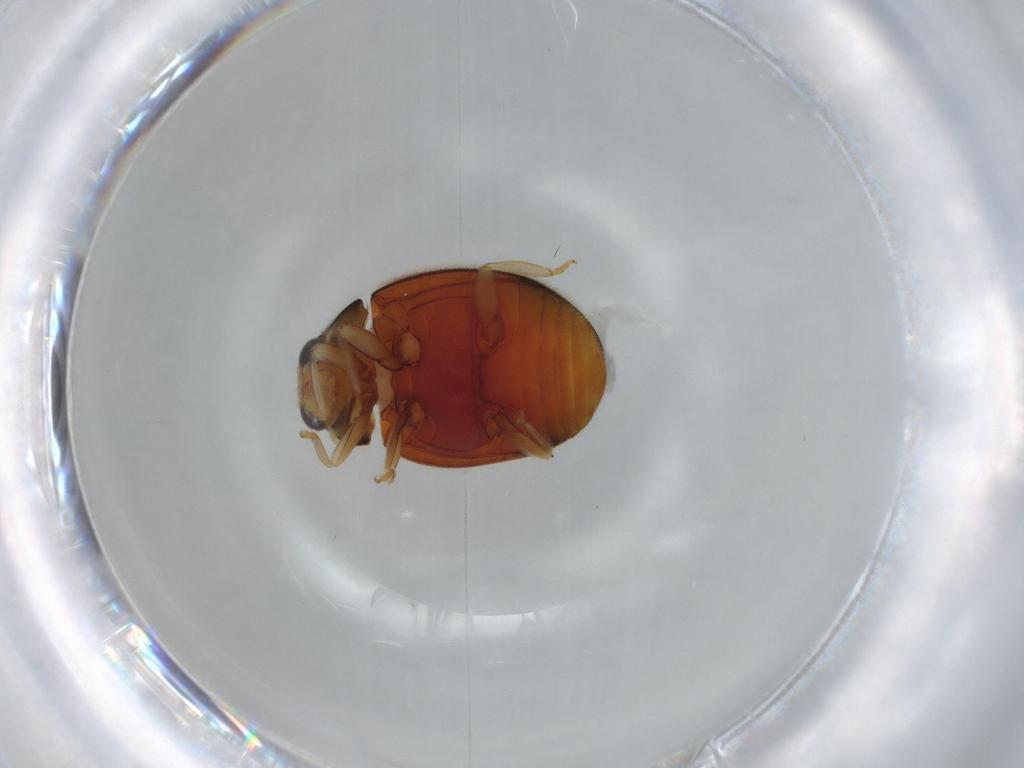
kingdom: Animalia
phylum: Arthropoda
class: Insecta
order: Coleoptera
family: Coccinellidae
